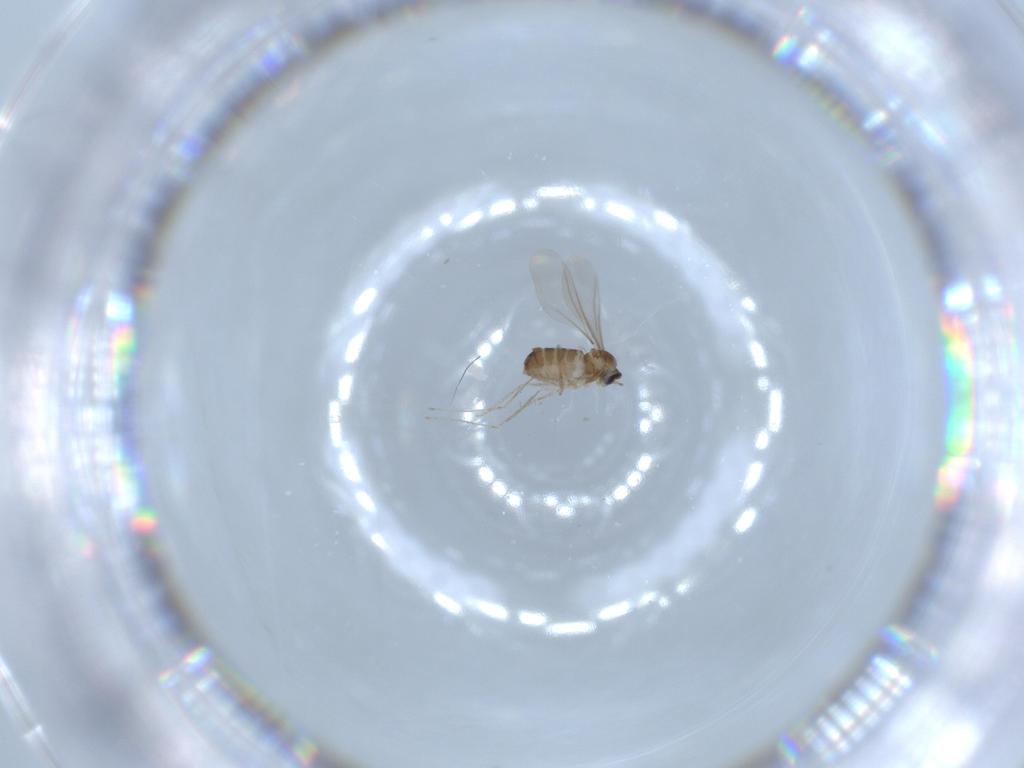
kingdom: Animalia
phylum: Arthropoda
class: Insecta
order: Diptera
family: Cecidomyiidae
